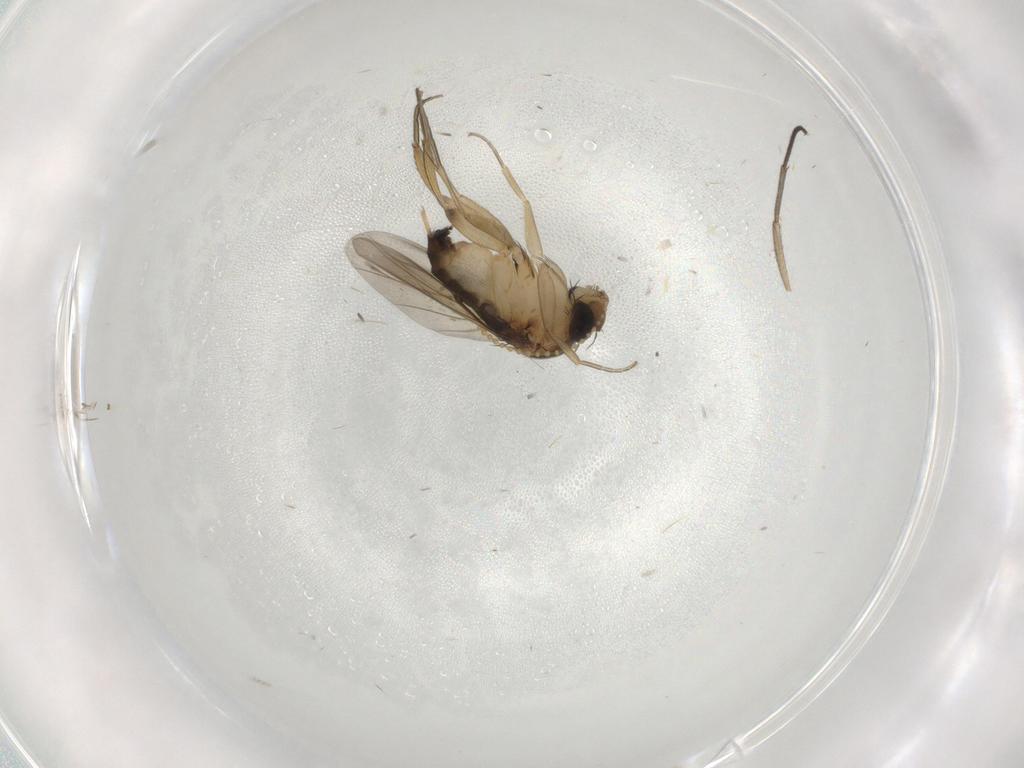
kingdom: Animalia
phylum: Arthropoda
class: Insecta
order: Diptera
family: Phoridae
